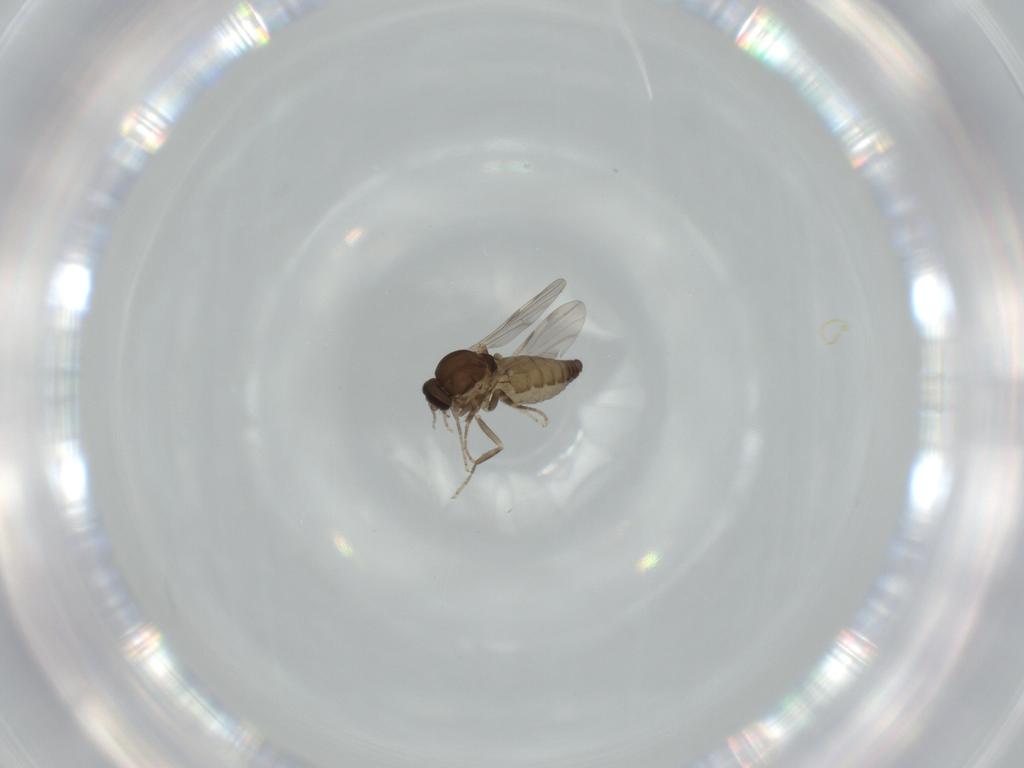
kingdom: Animalia
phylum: Arthropoda
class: Insecta
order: Diptera
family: Ceratopogonidae
